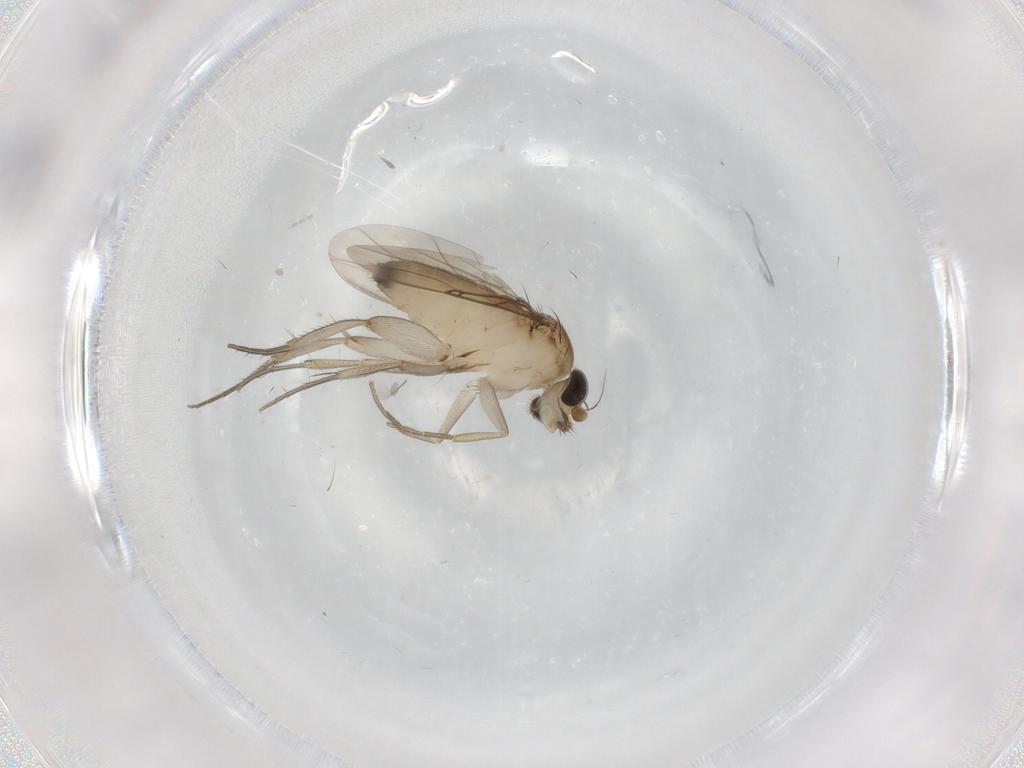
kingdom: Animalia
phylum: Arthropoda
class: Insecta
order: Diptera
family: Phoridae
